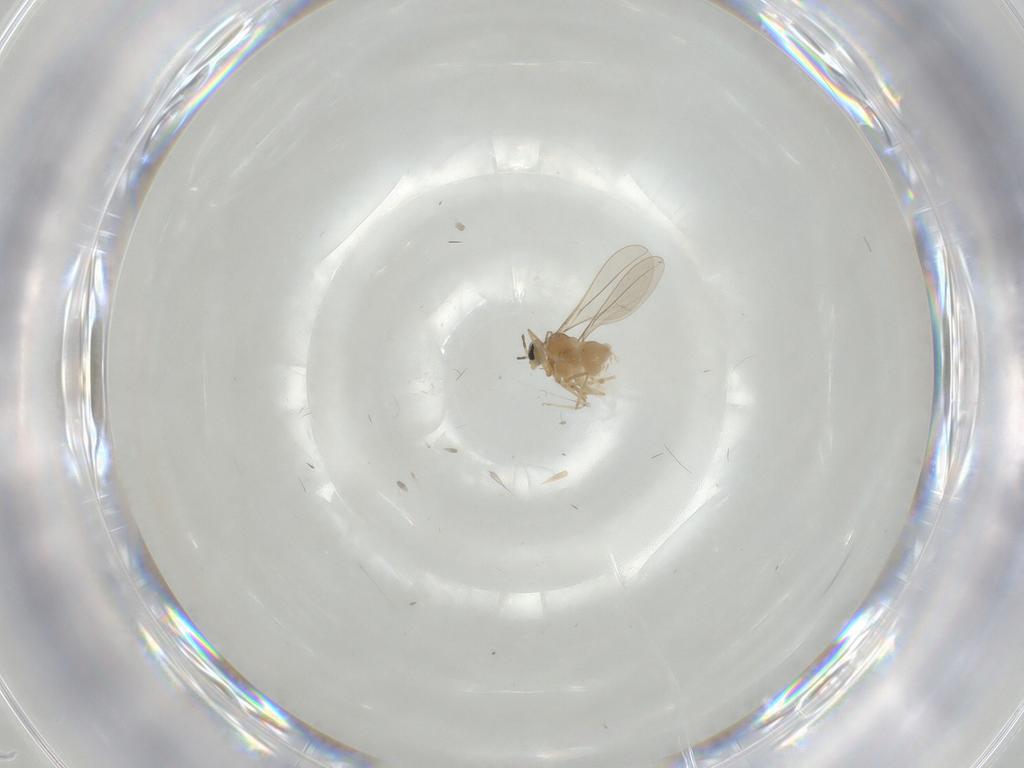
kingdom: Animalia
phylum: Arthropoda
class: Insecta
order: Diptera
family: Cecidomyiidae
